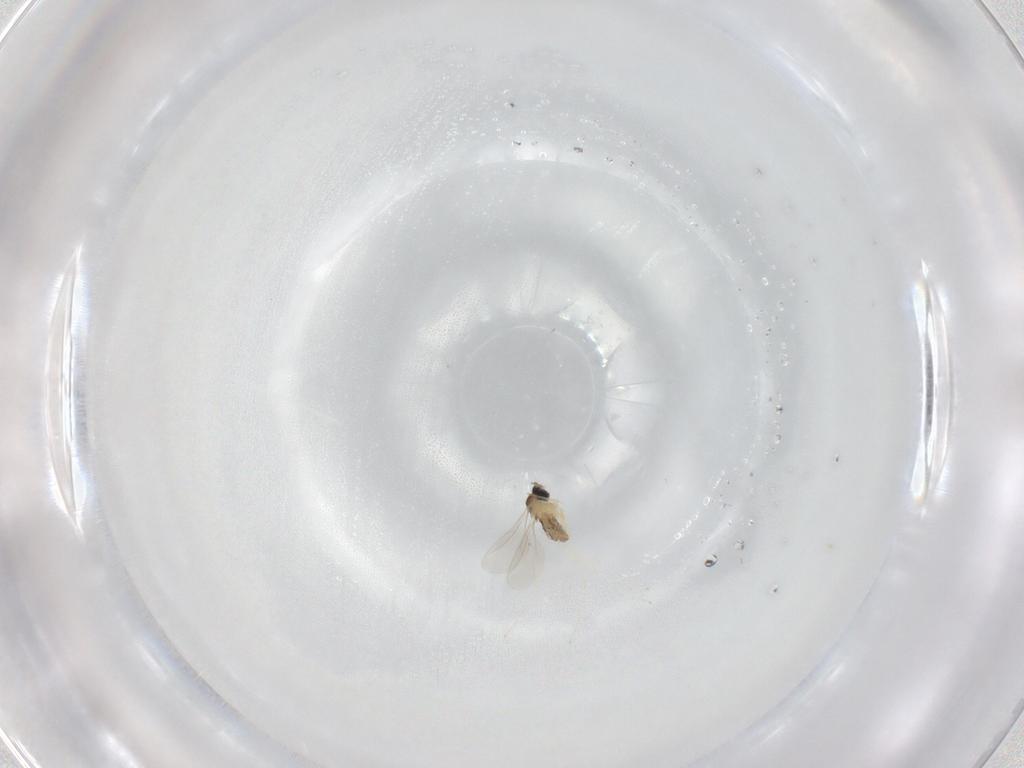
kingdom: Animalia
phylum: Arthropoda
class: Insecta
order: Diptera
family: Cecidomyiidae
